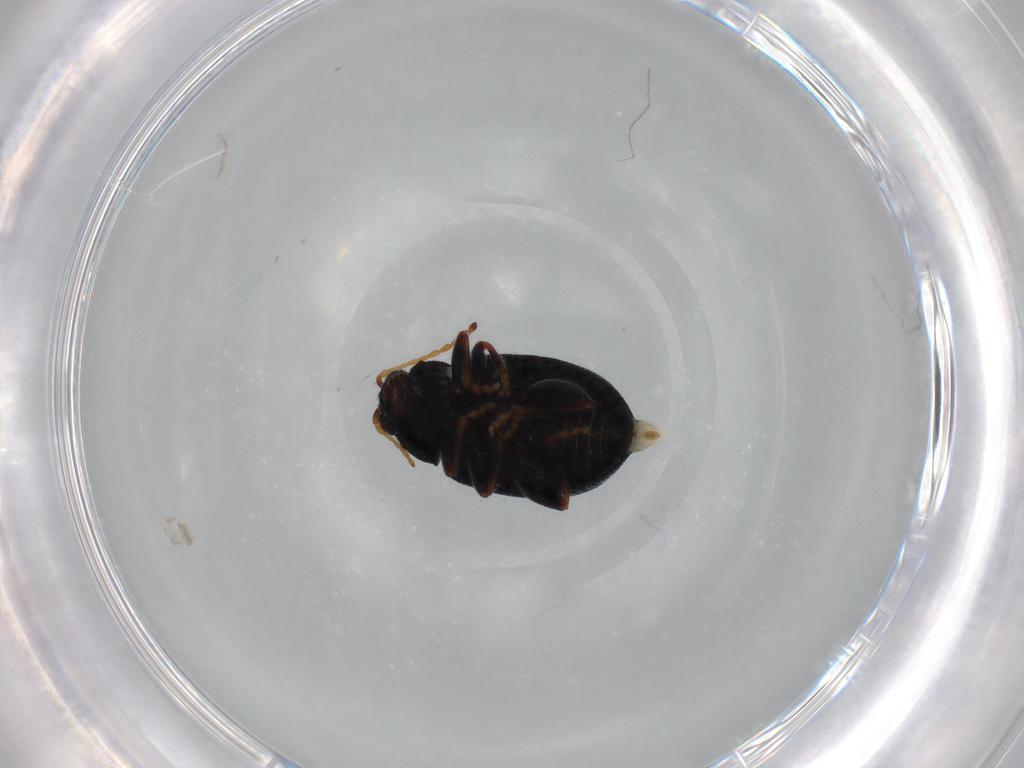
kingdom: Animalia
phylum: Arthropoda
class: Insecta
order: Coleoptera
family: Chrysomelidae
